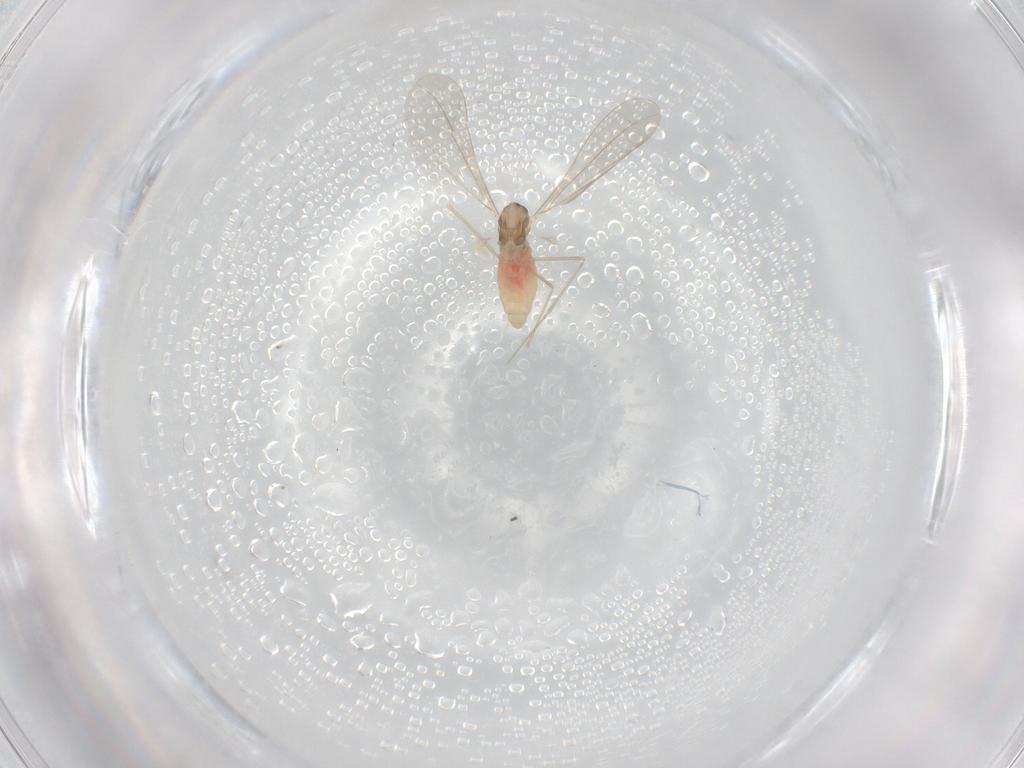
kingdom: Animalia
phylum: Arthropoda
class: Insecta
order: Diptera
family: Cecidomyiidae
